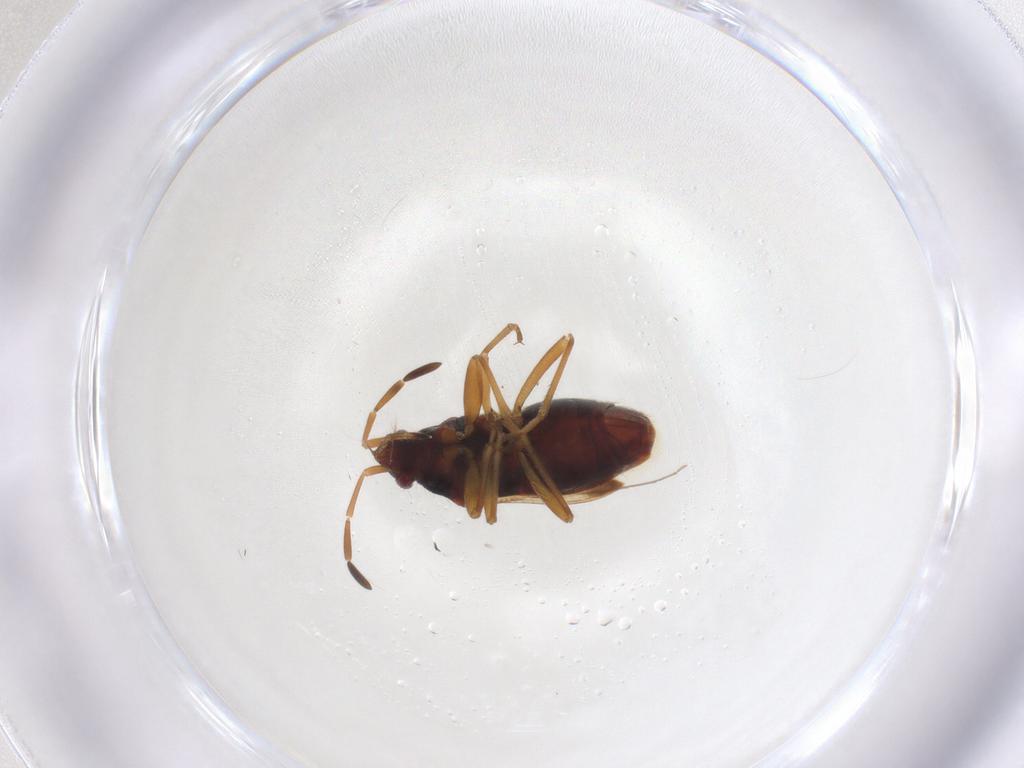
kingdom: Animalia
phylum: Arthropoda
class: Insecta
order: Hemiptera
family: Rhyparochromidae
